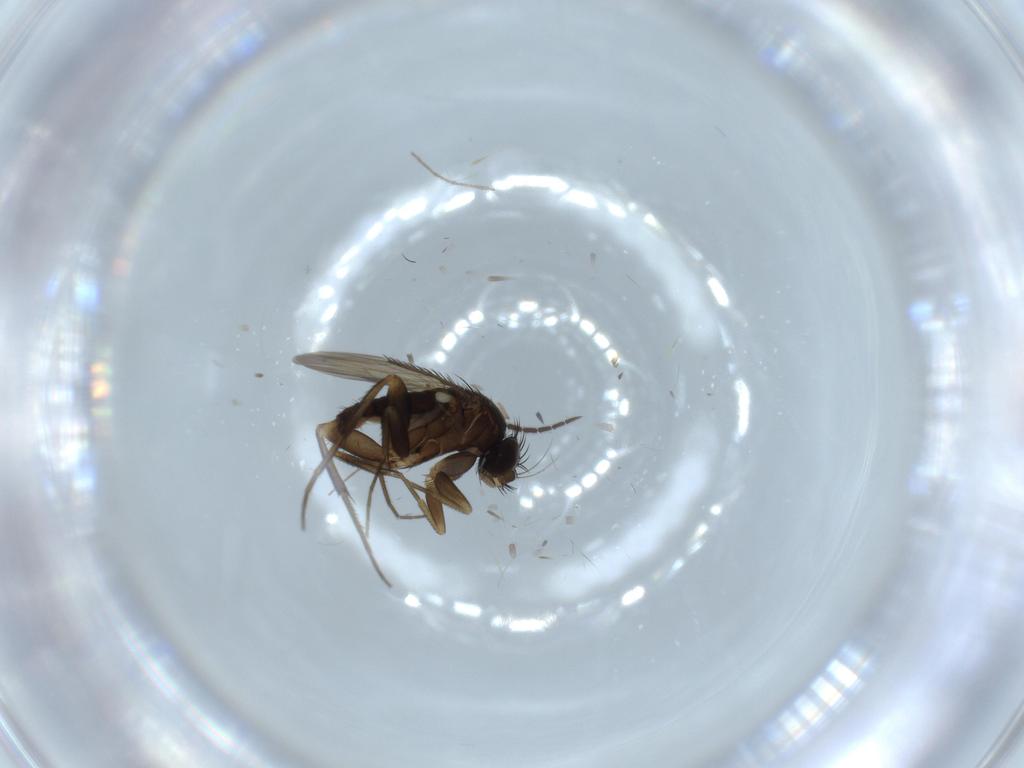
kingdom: Animalia
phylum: Arthropoda
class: Insecta
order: Diptera
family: Sciaridae
